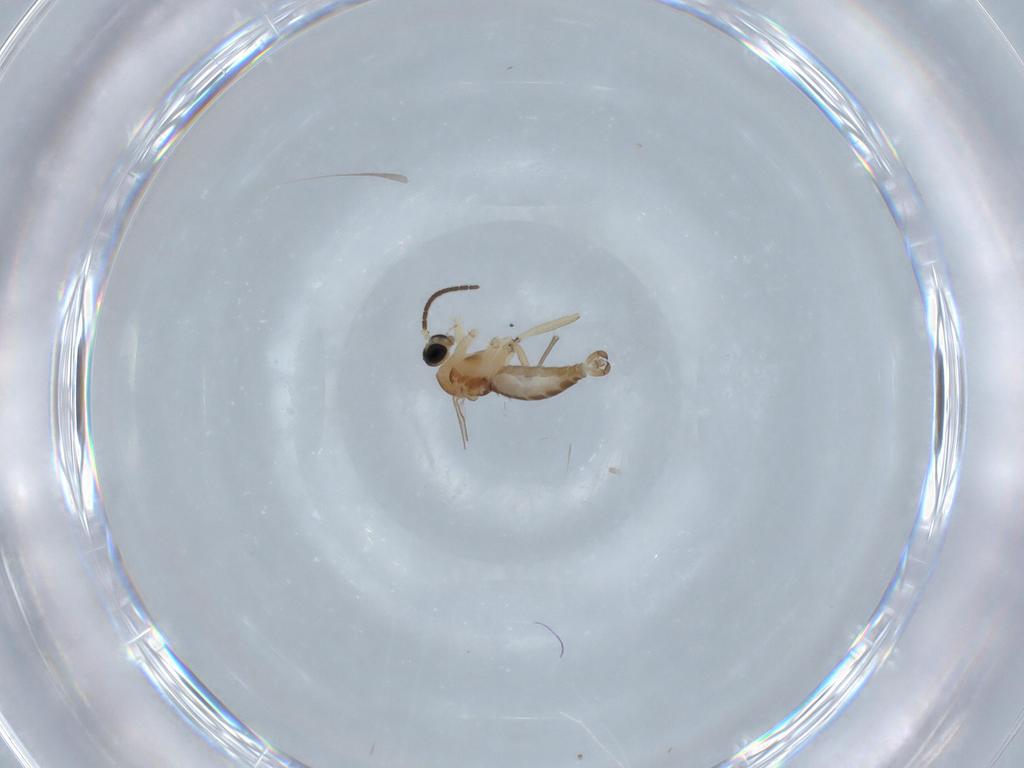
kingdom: Animalia
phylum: Arthropoda
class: Insecta
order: Diptera
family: Sciaridae
